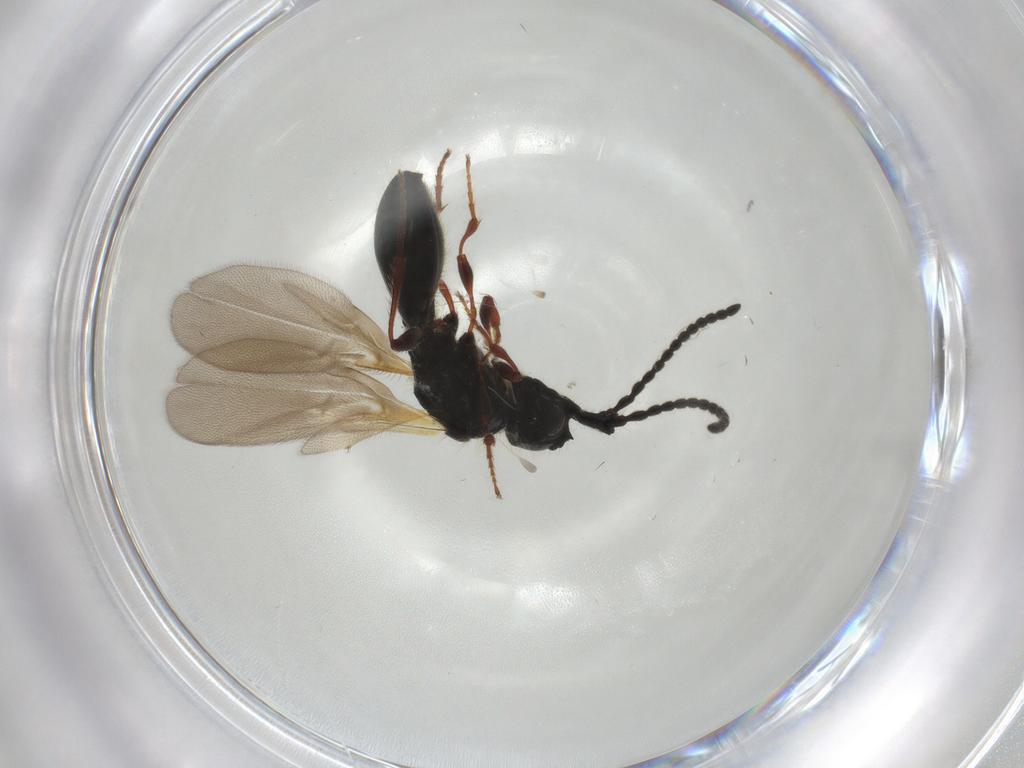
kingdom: Animalia
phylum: Arthropoda
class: Insecta
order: Hymenoptera
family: Diapriidae
